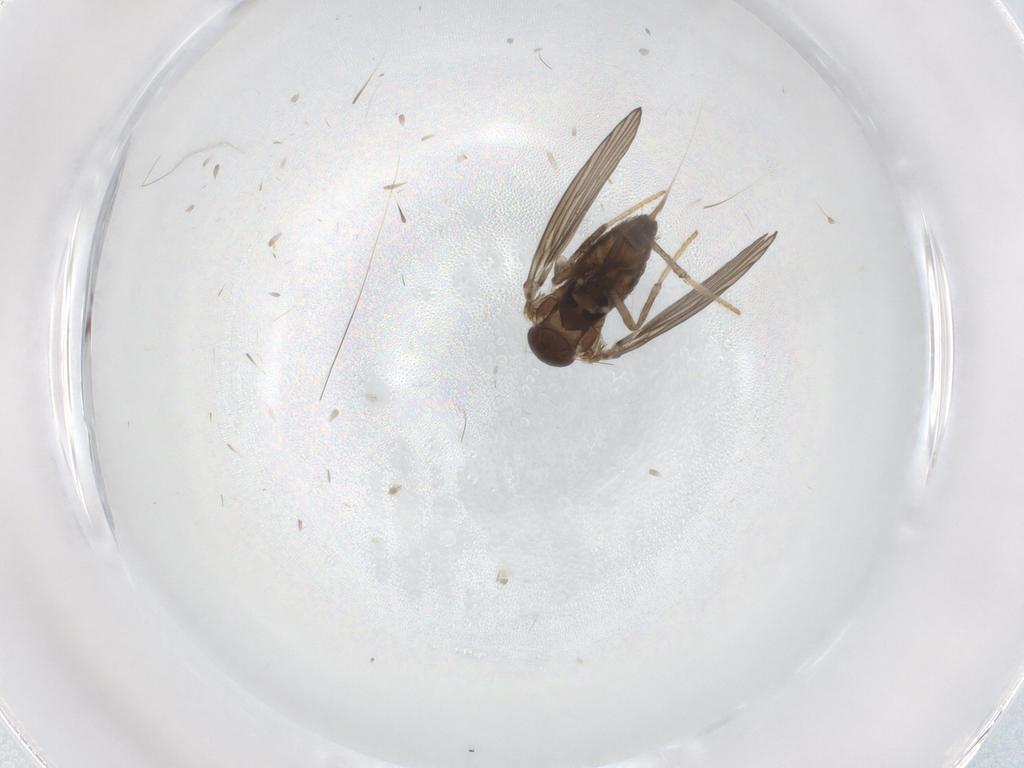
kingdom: Animalia
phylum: Arthropoda
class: Insecta
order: Diptera
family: Psychodidae
